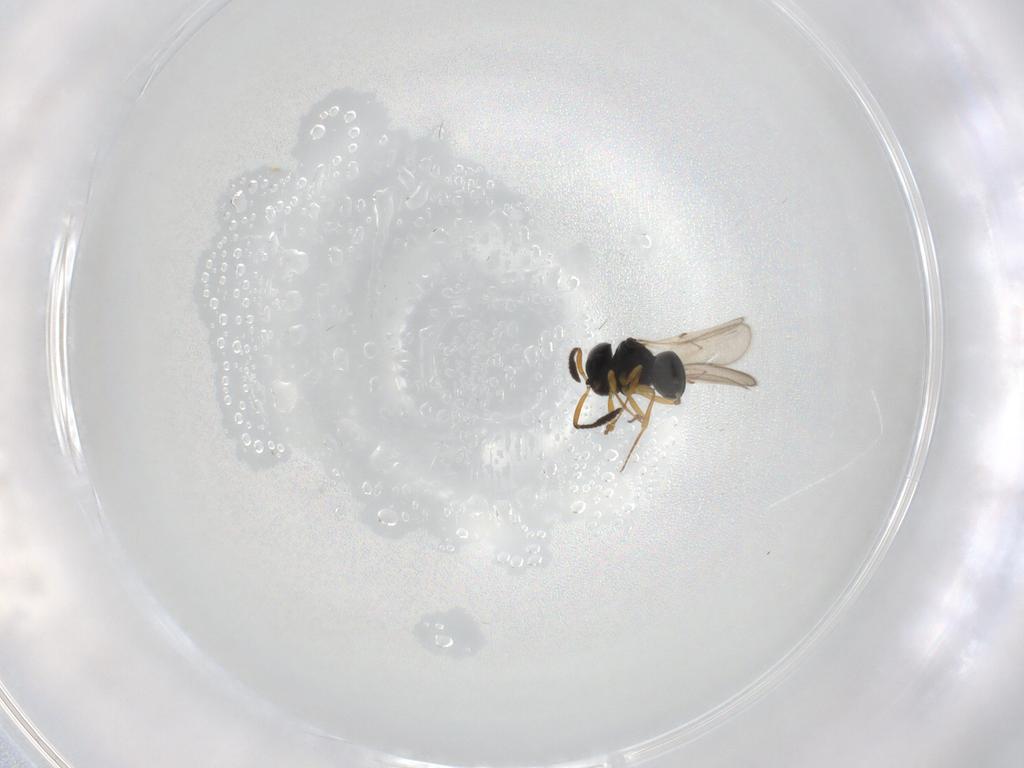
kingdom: Animalia
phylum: Arthropoda
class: Insecta
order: Hymenoptera
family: Scelionidae
